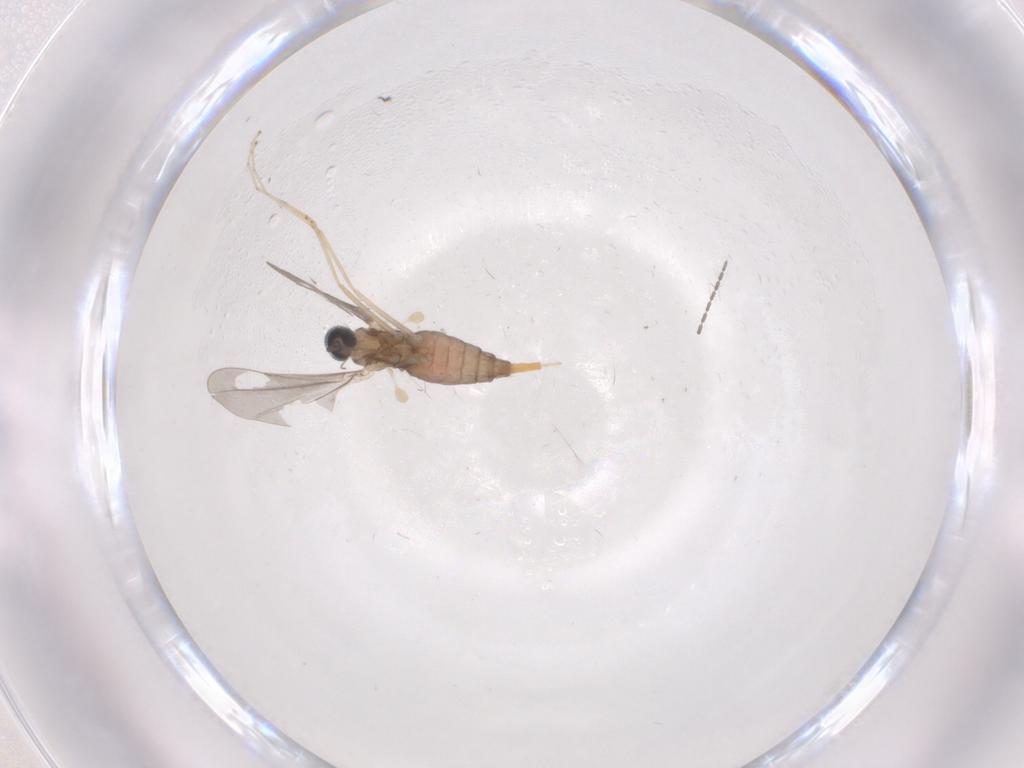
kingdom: Animalia
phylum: Arthropoda
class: Insecta
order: Diptera
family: Cecidomyiidae
